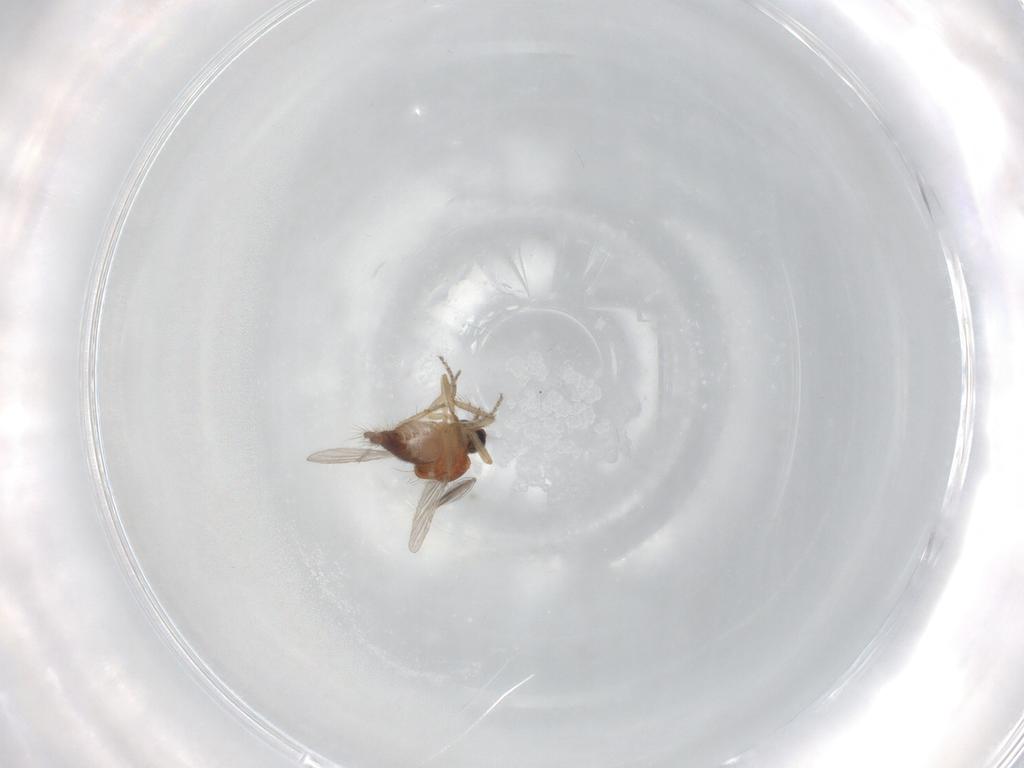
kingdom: Animalia
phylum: Arthropoda
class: Insecta
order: Diptera
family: Ceratopogonidae
